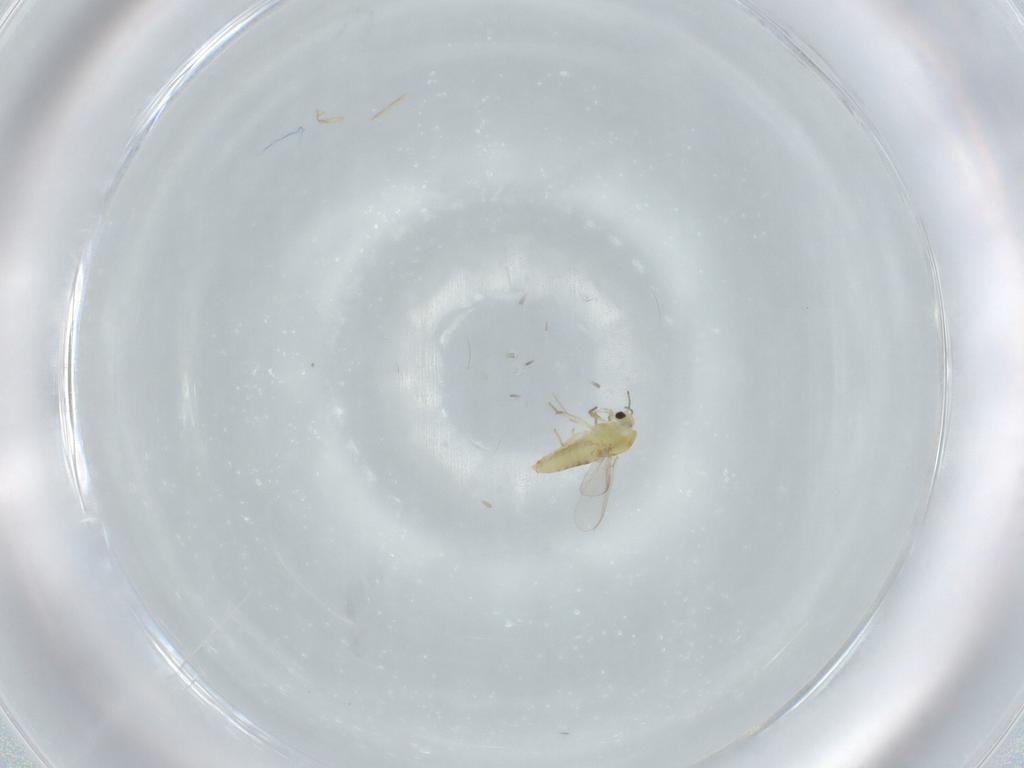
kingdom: Animalia
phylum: Arthropoda
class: Insecta
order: Diptera
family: Chironomidae
